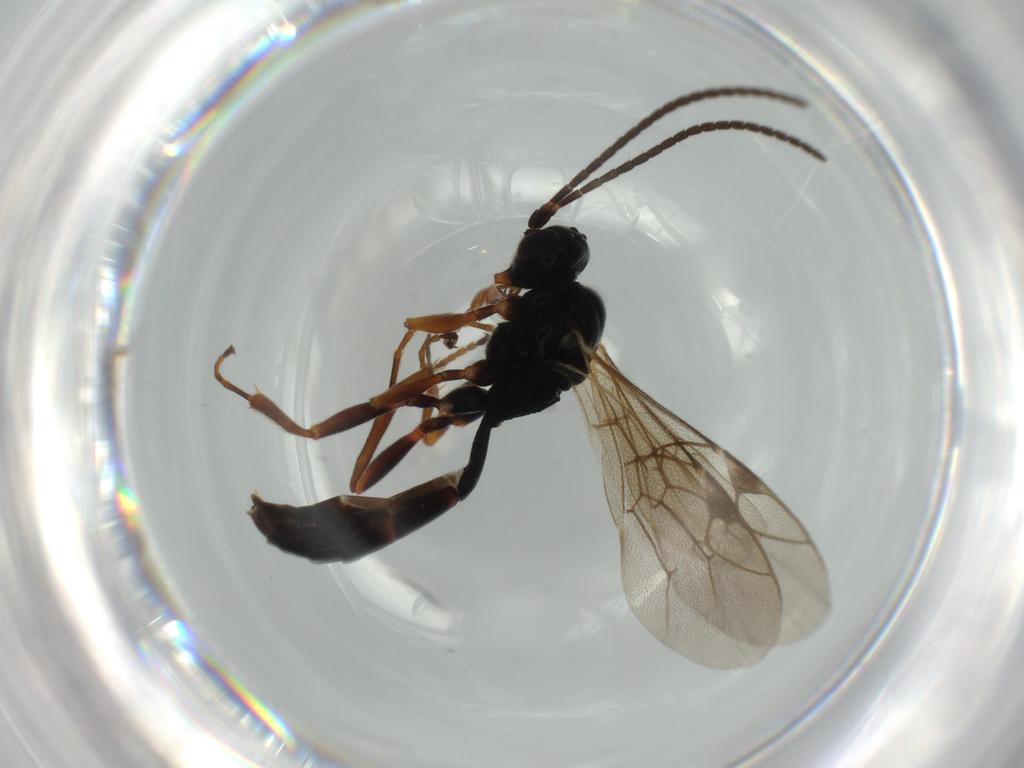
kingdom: Animalia
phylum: Arthropoda
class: Insecta
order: Hymenoptera
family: Ichneumonidae
